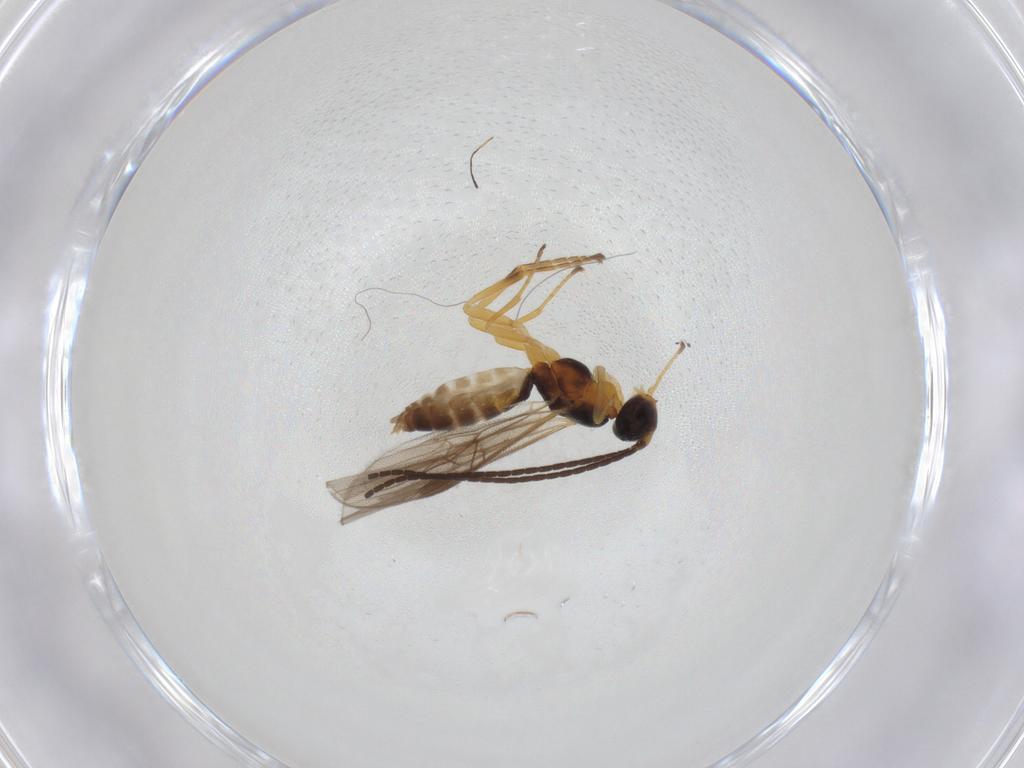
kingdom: Animalia
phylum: Arthropoda
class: Insecta
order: Hymenoptera
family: Braconidae
